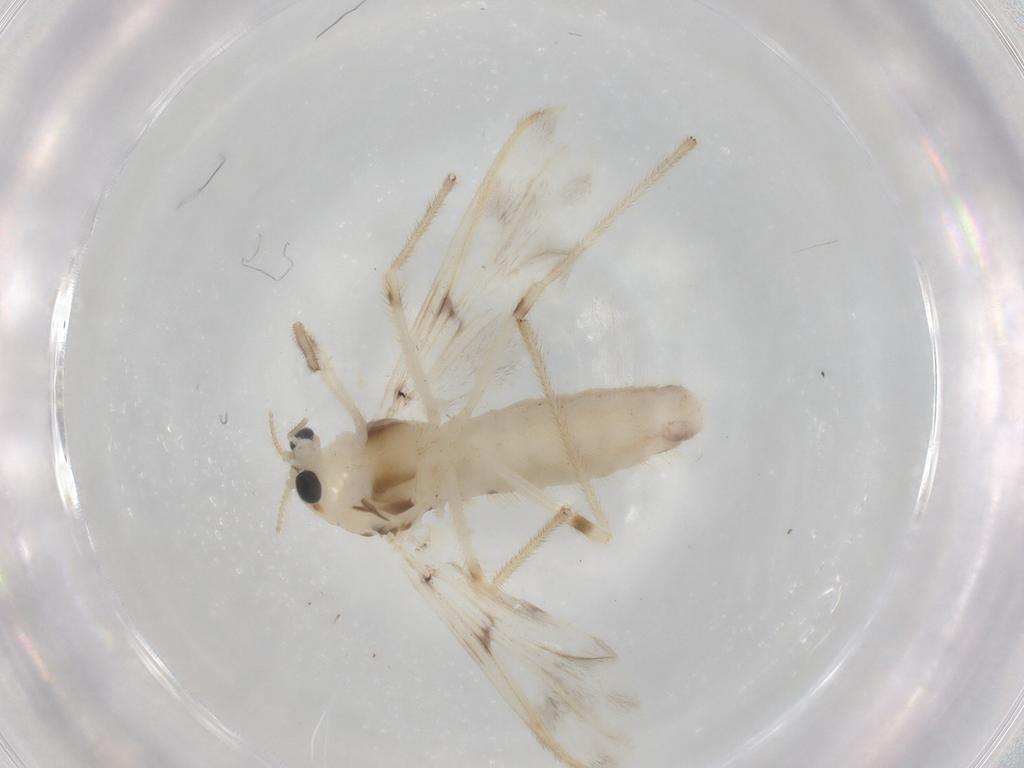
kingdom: Animalia
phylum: Arthropoda
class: Insecta
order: Diptera
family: Chironomidae
